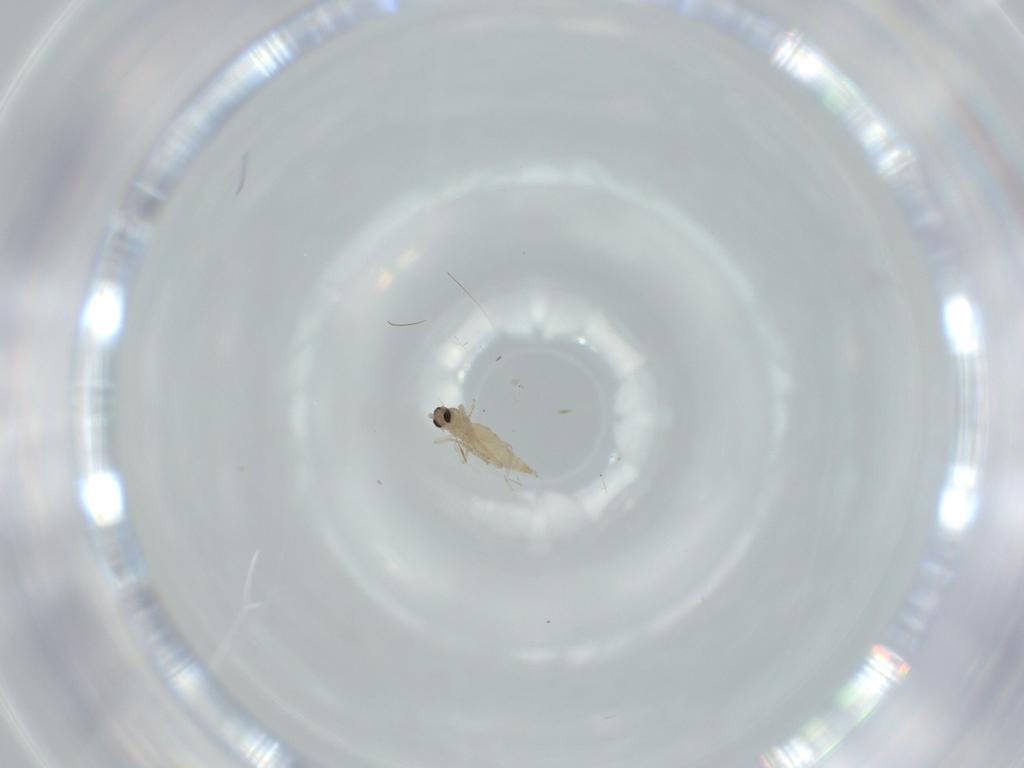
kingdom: Animalia
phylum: Arthropoda
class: Insecta
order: Diptera
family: Cecidomyiidae
